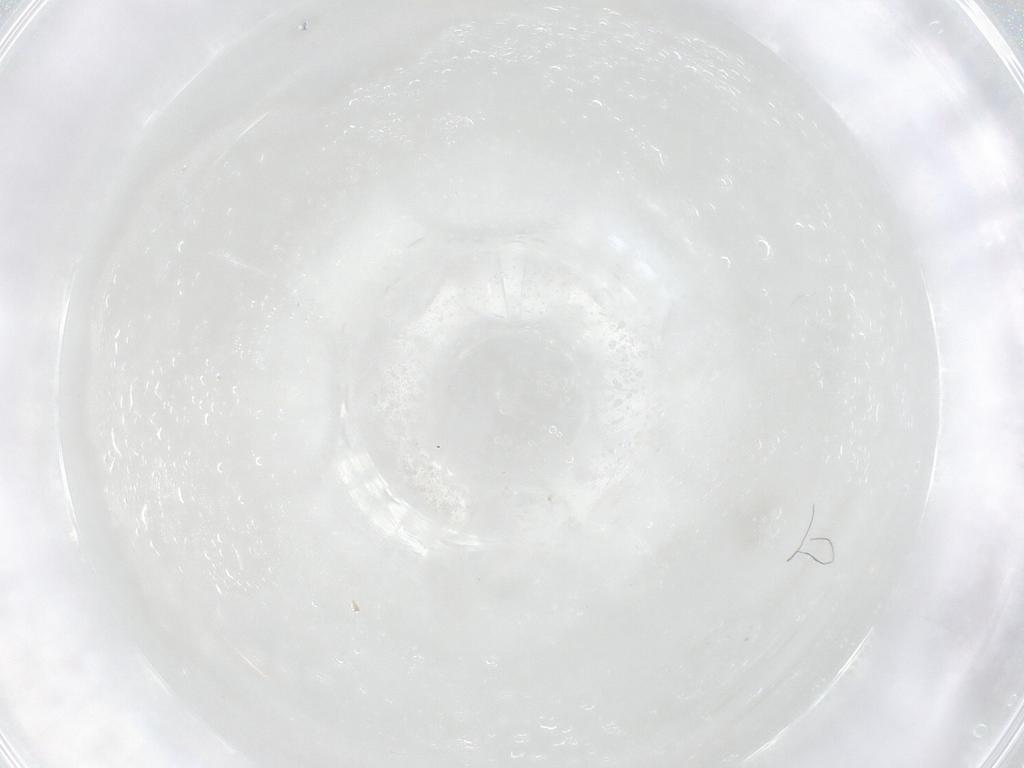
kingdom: Animalia
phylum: Arthropoda
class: Insecta
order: Diptera
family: Cecidomyiidae
